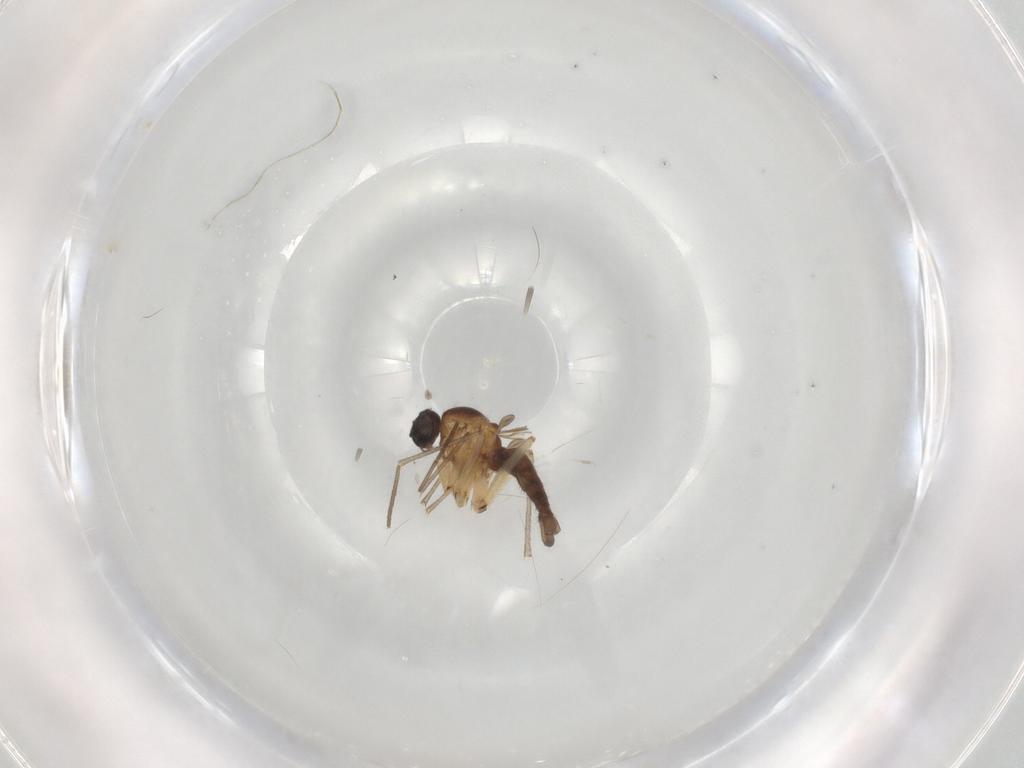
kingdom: Animalia
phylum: Arthropoda
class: Insecta
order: Diptera
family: Sciaridae
